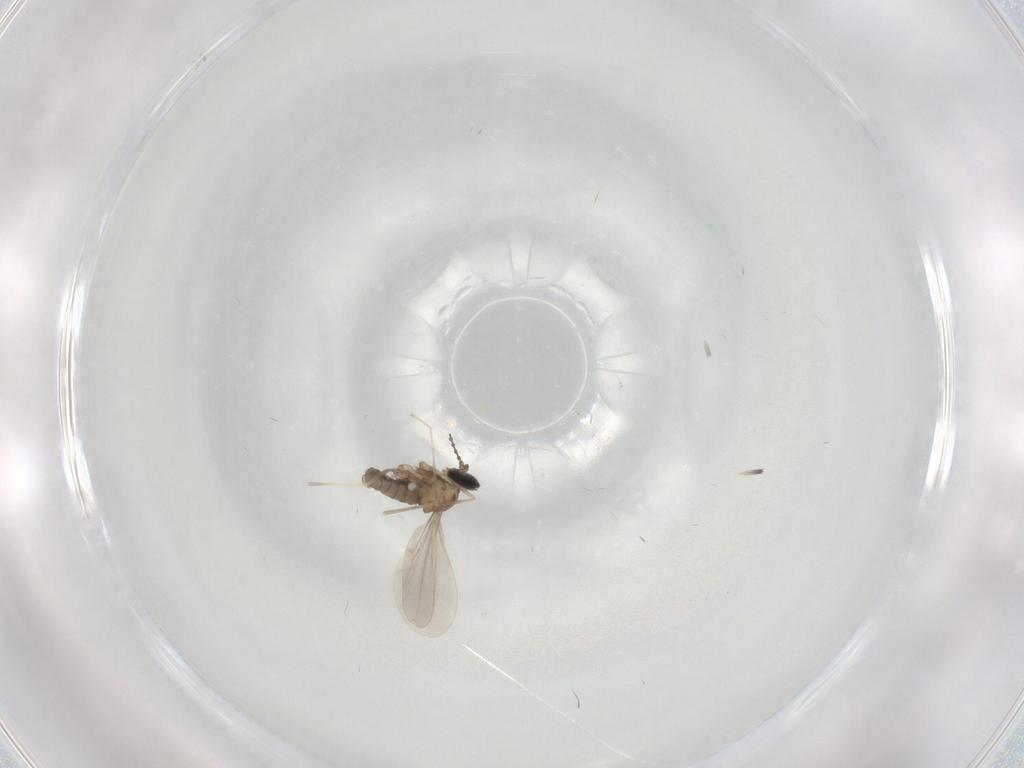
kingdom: Animalia
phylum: Arthropoda
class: Insecta
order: Diptera
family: Cecidomyiidae
